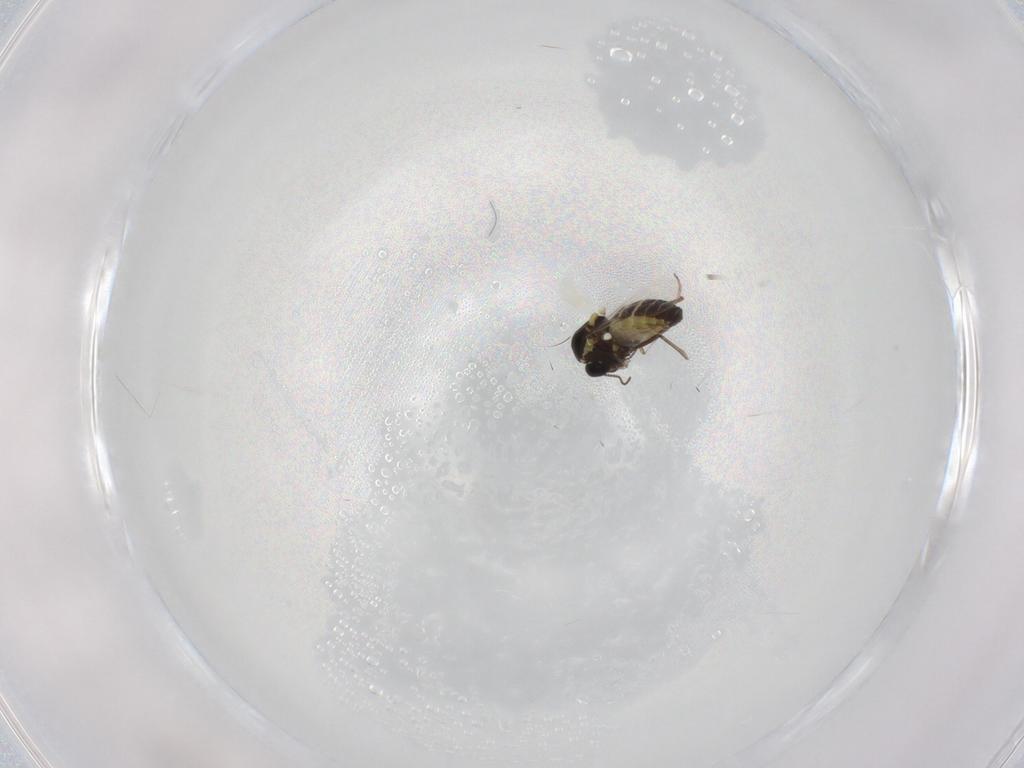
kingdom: Animalia
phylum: Arthropoda
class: Insecta
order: Diptera
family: Ceratopogonidae
